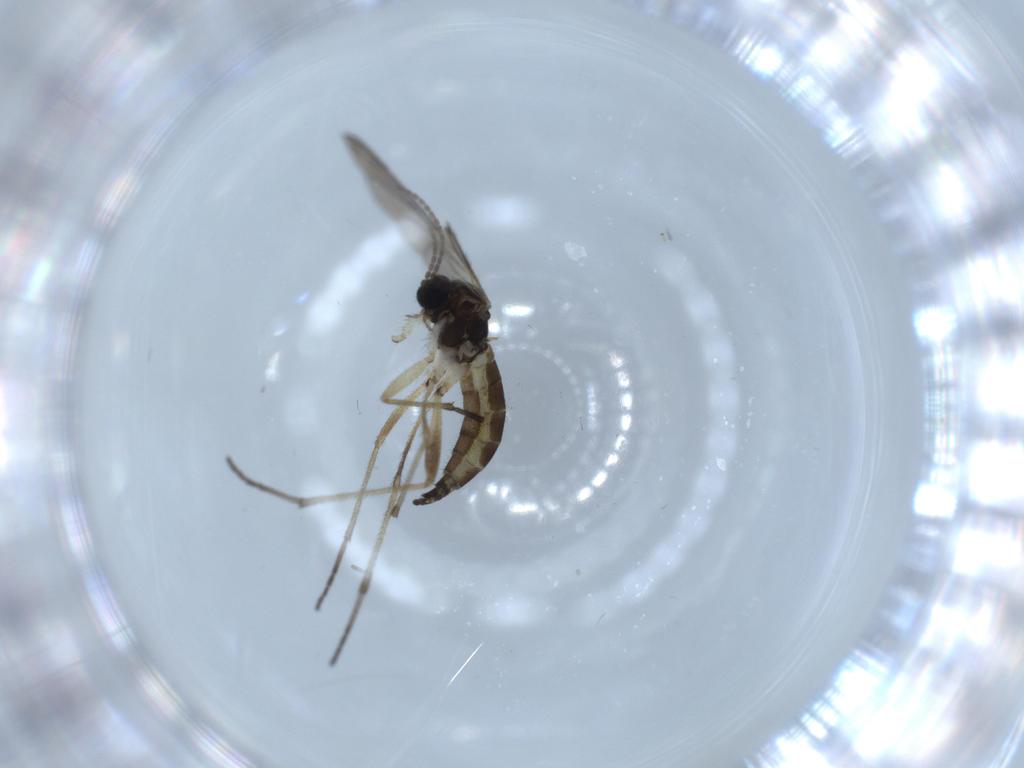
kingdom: Animalia
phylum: Arthropoda
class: Insecta
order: Diptera
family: Sciaridae
